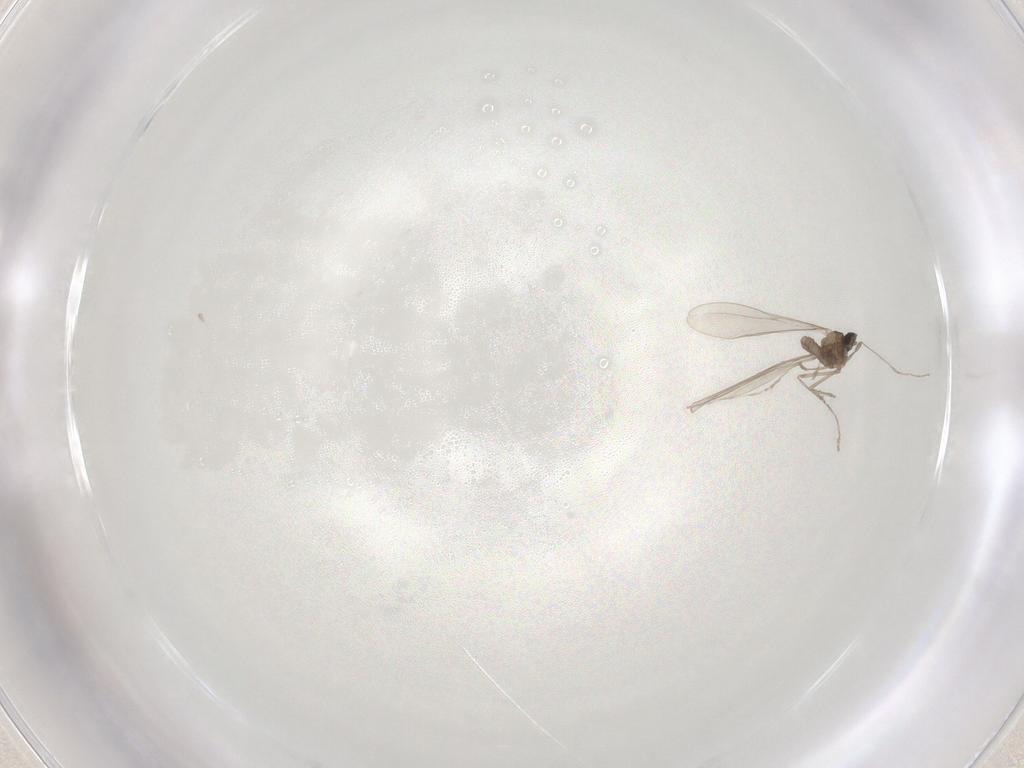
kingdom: Animalia
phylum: Arthropoda
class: Insecta
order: Diptera
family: Cecidomyiidae
